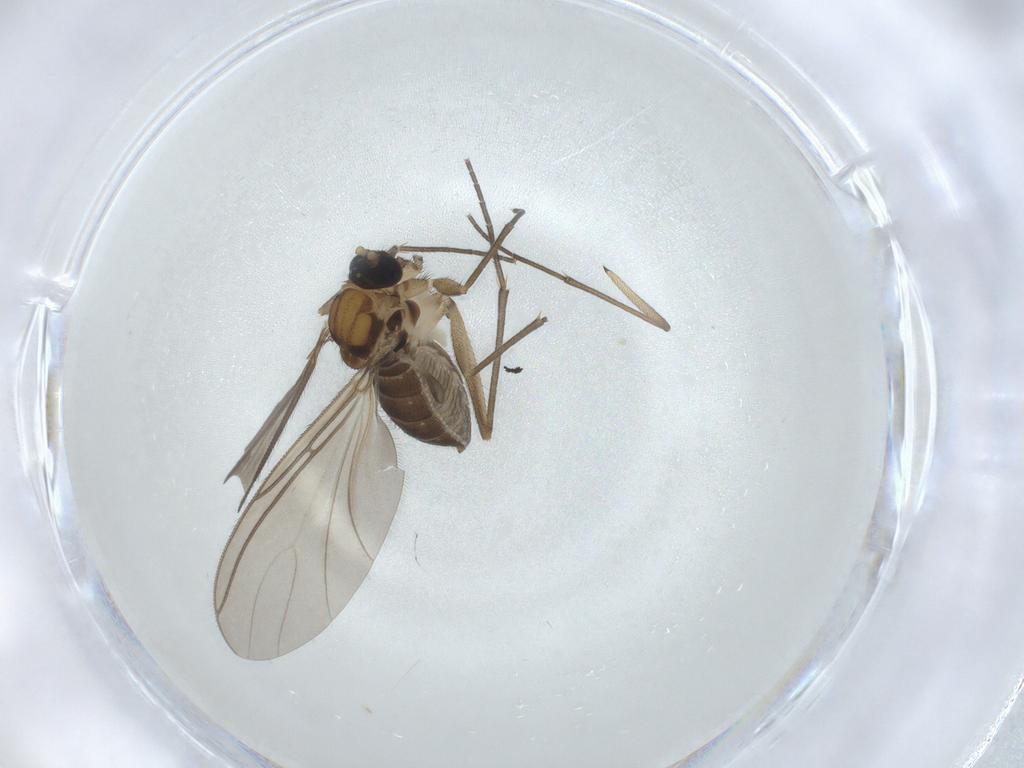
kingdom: Animalia
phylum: Arthropoda
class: Insecta
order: Diptera
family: Sciaridae
